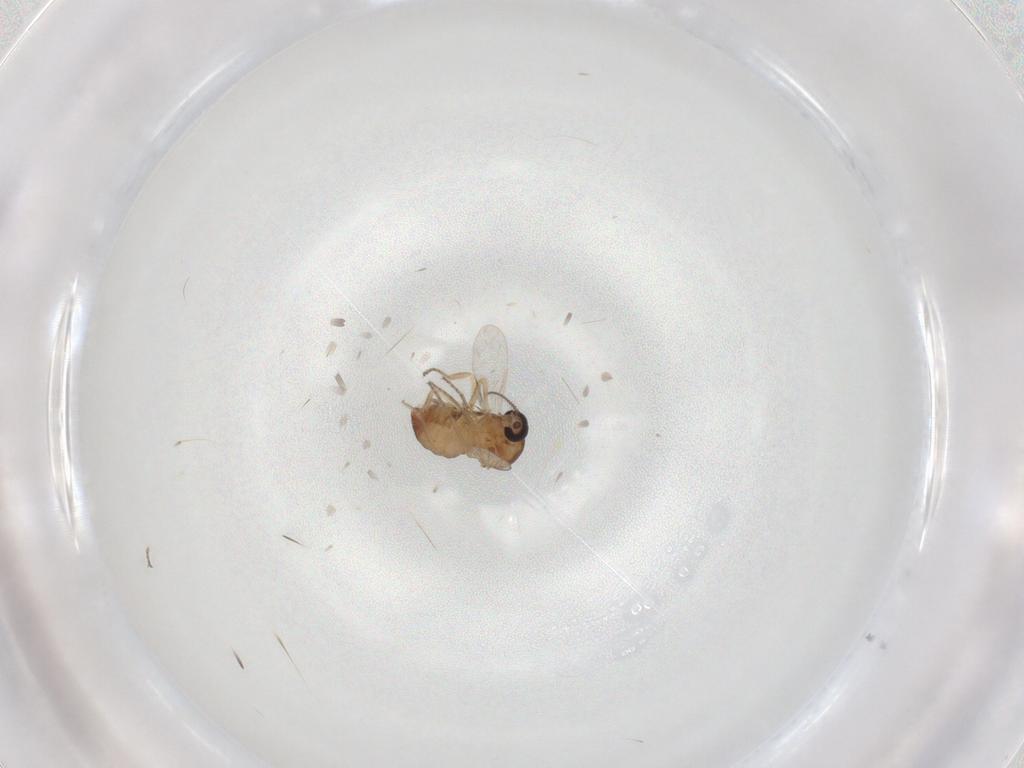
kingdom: Animalia
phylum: Arthropoda
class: Insecta
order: Diptera
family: Ceratopogonidae
